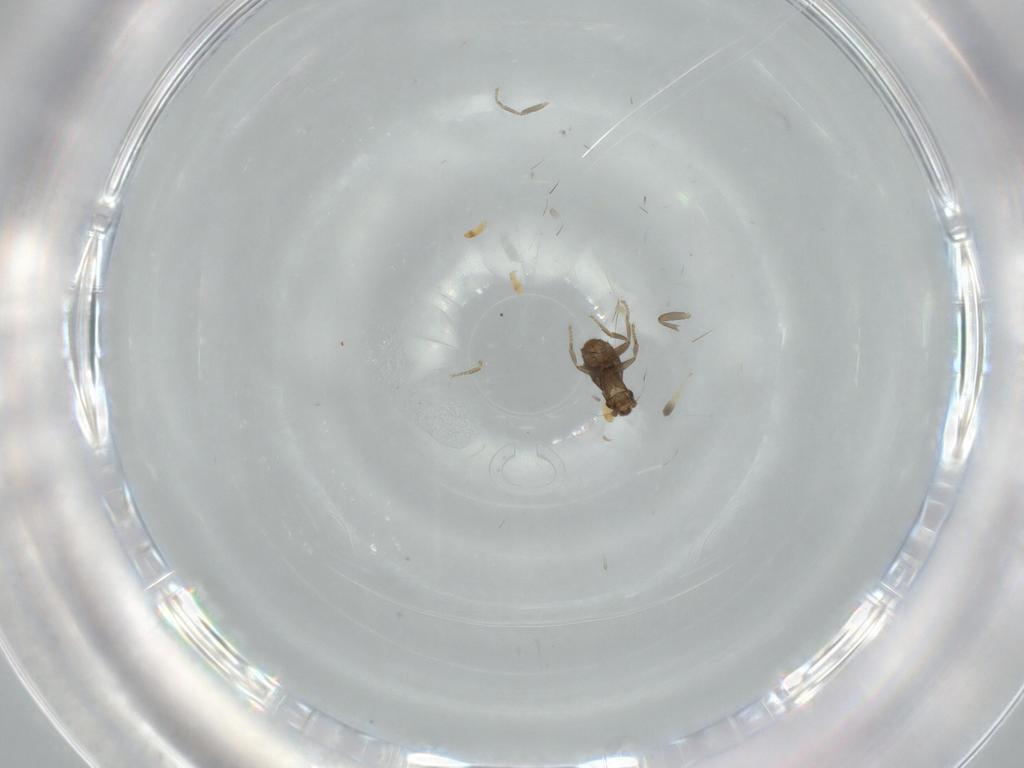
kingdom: Animalia
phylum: Arthropoda
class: Insecta
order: Diptera
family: Phoridae
